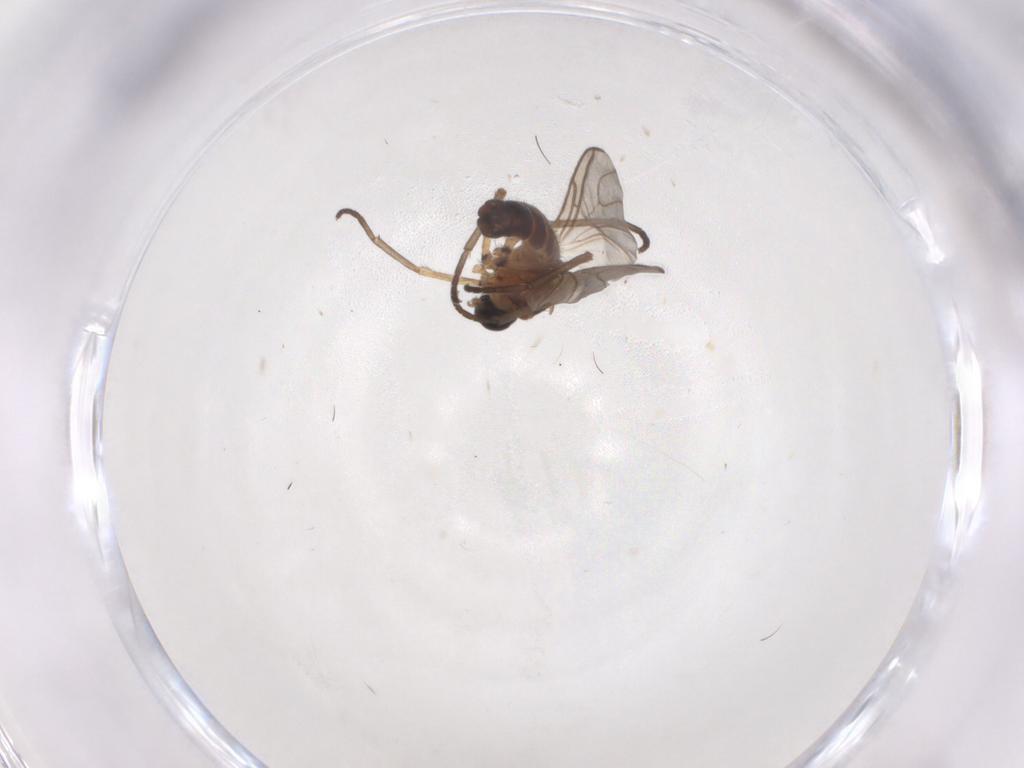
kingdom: Animalia
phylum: Arthropoda
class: Insecta
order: Diptera
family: Sciaridae
